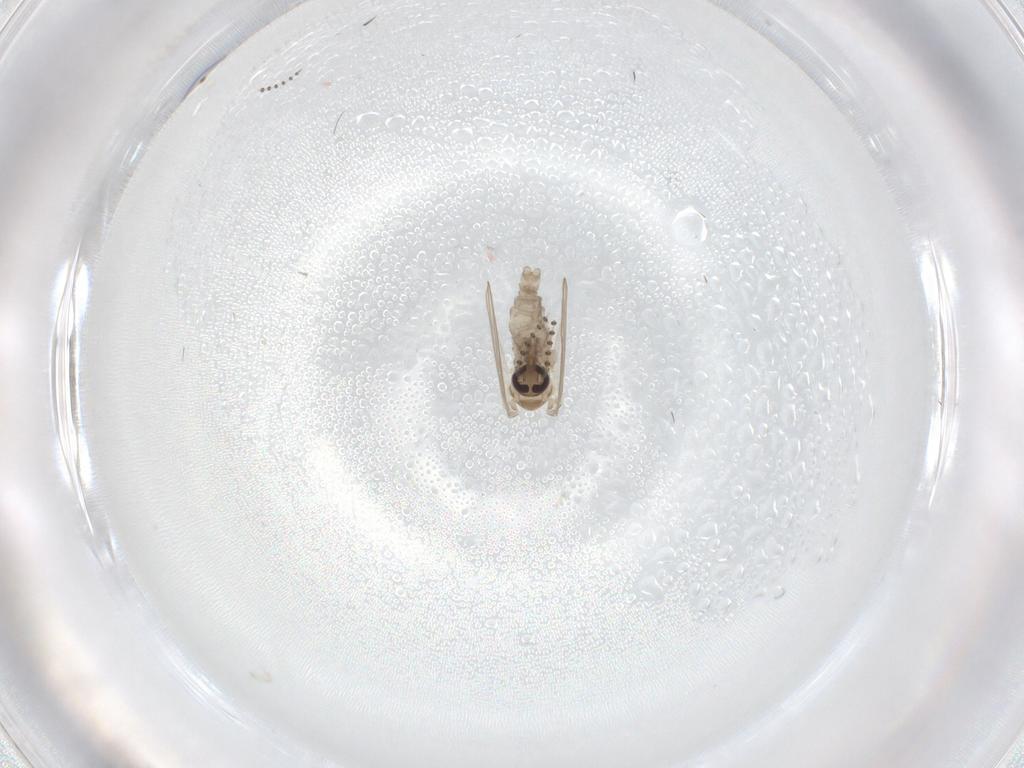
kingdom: Animalia
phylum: Arthropoda
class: Insecta
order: Diptera
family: Psychodidae
